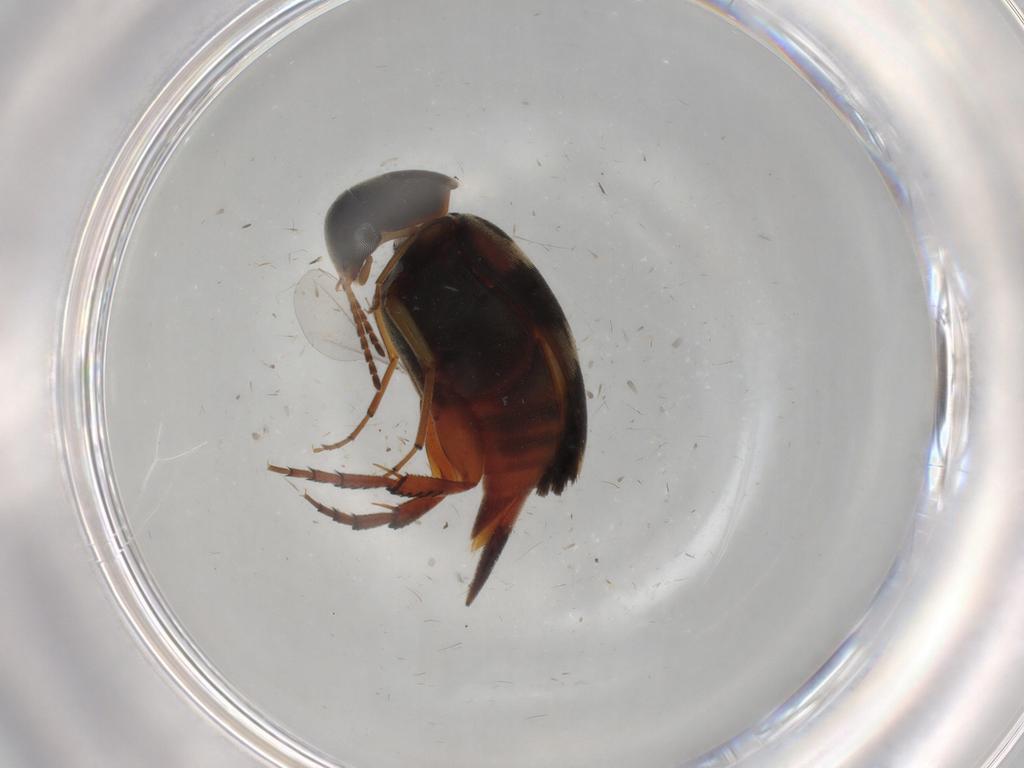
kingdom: Animalia
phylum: Arthropoda
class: Insecta
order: Coleoptera
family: Mordellidae
